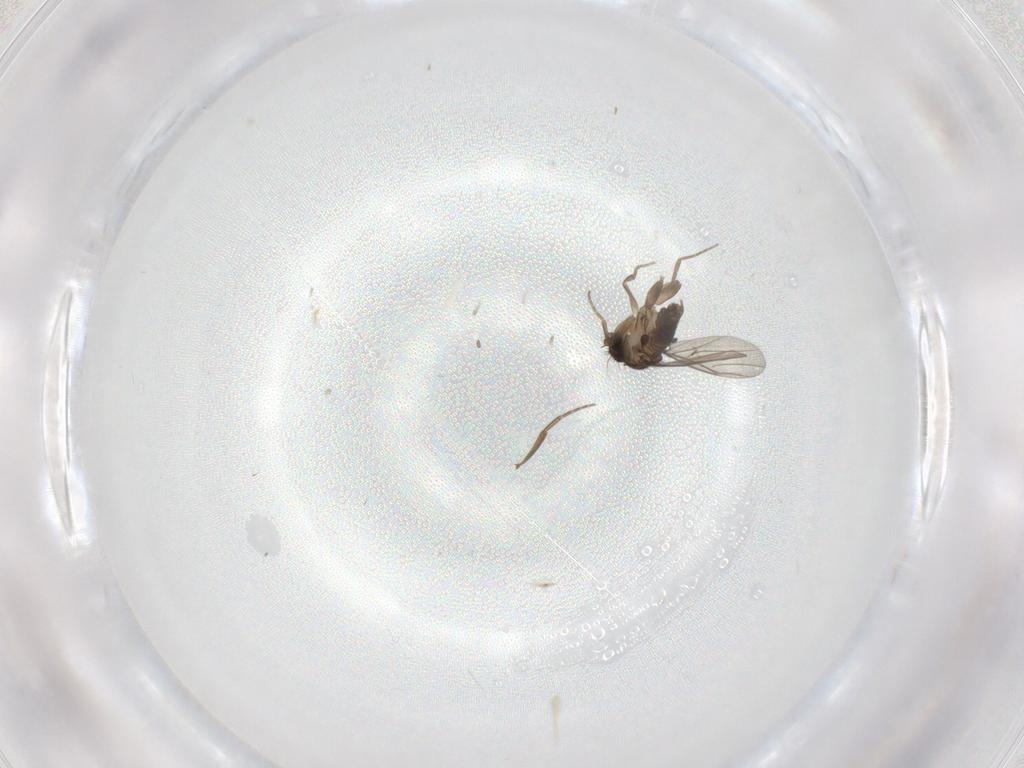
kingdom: Animalia
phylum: Arthropoda
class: Insecta
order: Diptera
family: Phoridae
